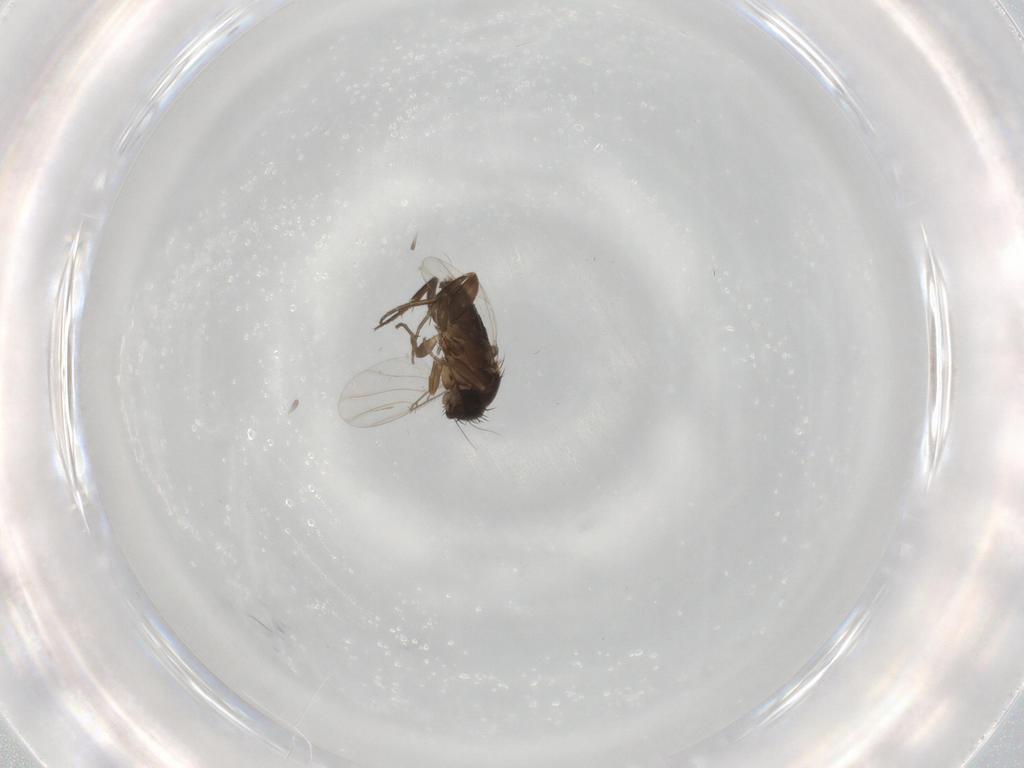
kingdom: Animalia
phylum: Arthropoda
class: Insecta
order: Diptera
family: Phoridae
